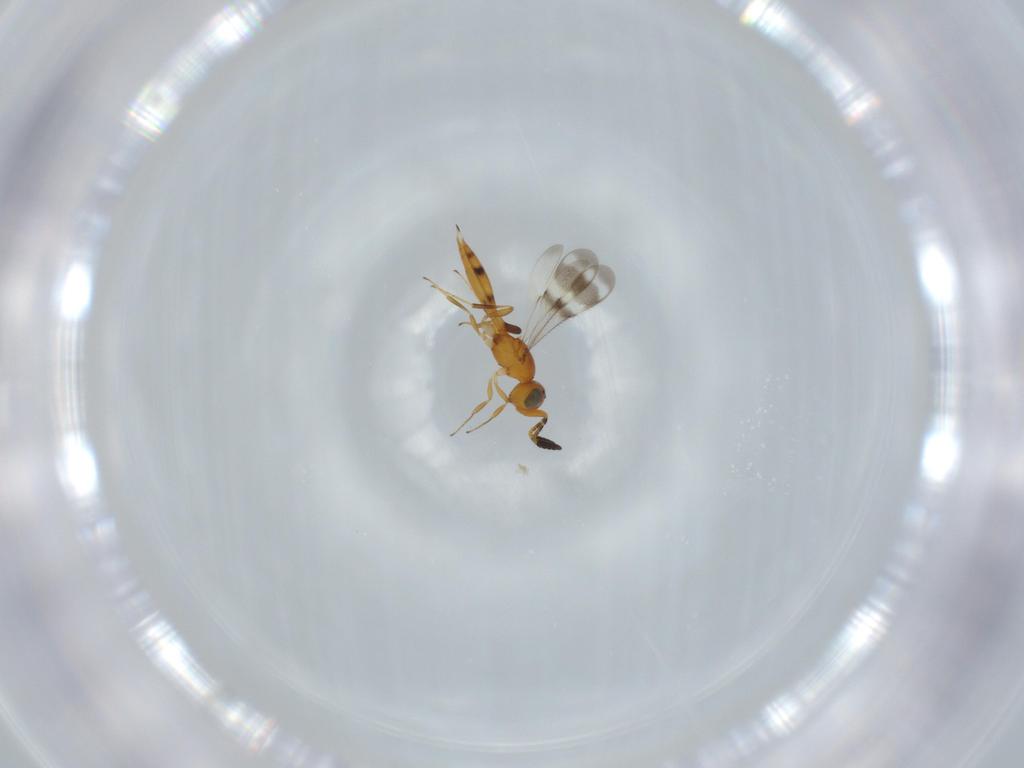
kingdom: Animalia
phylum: Arthropoda
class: Insecta
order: Hymenoptera
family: Scelionidae
